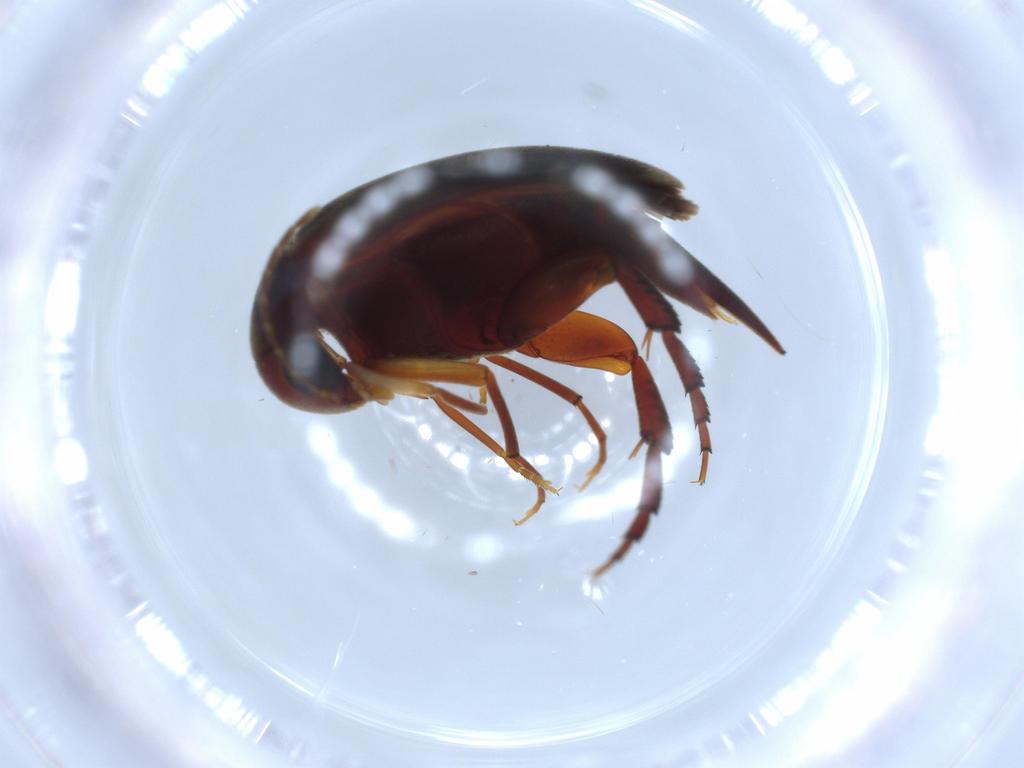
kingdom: Animalia
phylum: Arthropoda
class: Insecta
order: Coleoptera
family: Mordellidae
